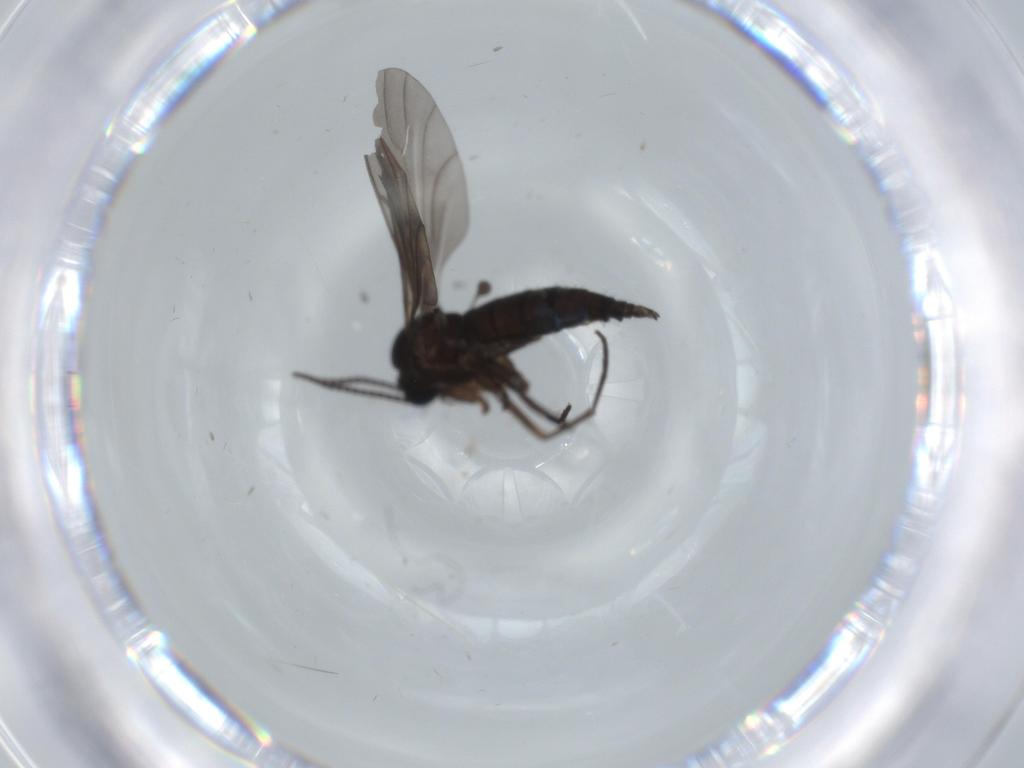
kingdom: Animalia
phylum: Arthropoda
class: Insecta
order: Diptera
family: Sciaridae
